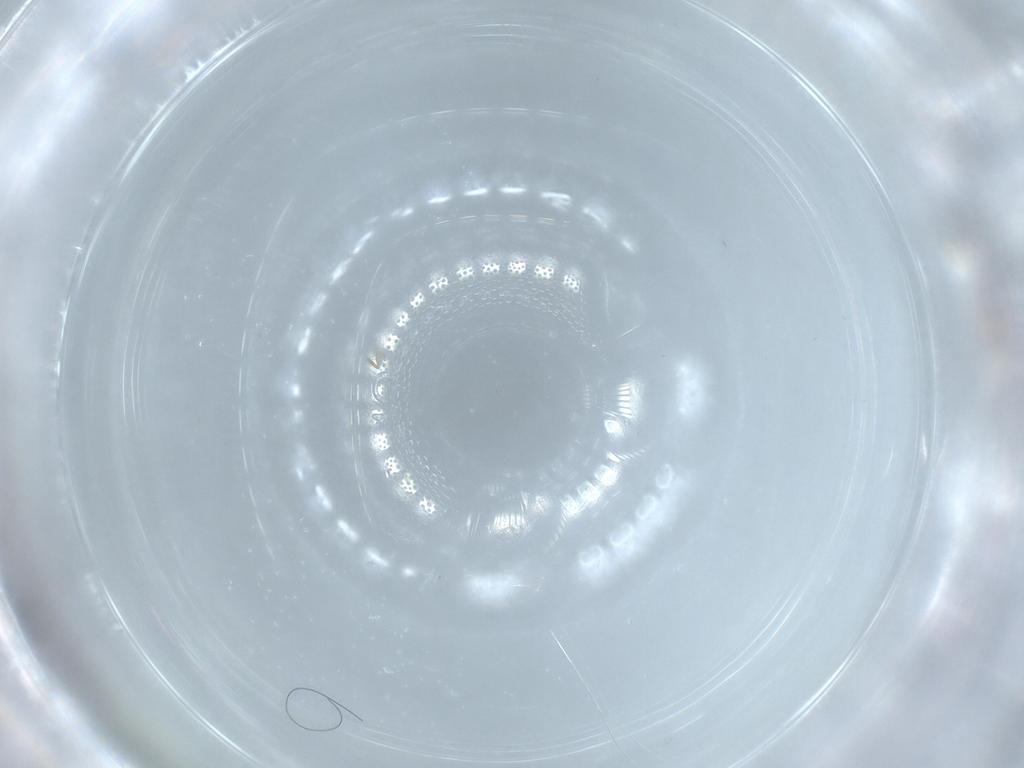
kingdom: Animalia
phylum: Arthropoda
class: Insecta
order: Psocodea
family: Liposcelididae
